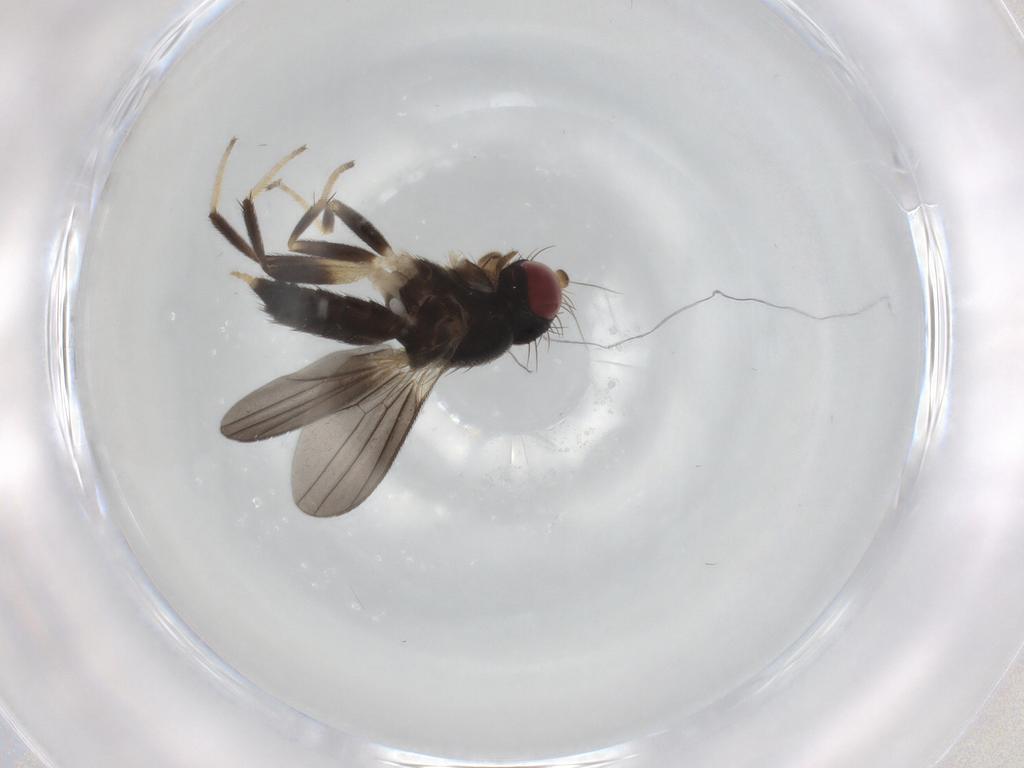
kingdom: Animalia
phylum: Arthropoda
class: Insecta
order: Diptera
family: Clusiidae
